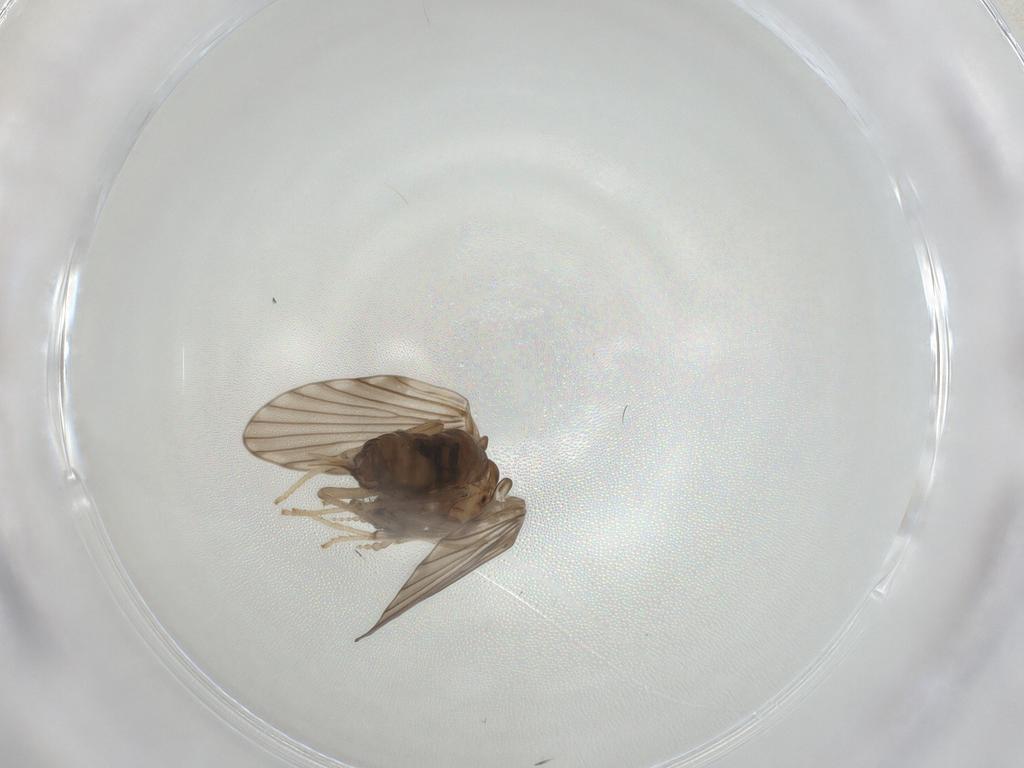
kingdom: Animalia
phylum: Arthropoda
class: Insecta
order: Diptera
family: Psychodidae
